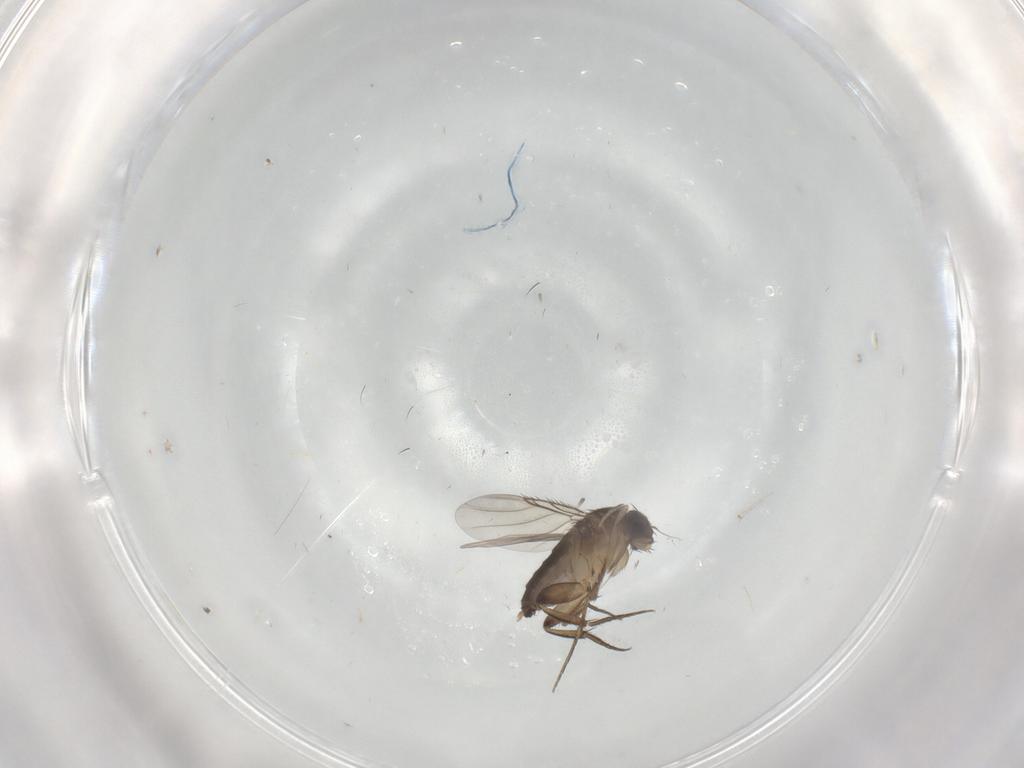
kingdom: Animalia
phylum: Arthropoda
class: Insecta
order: Diptera
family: Phoridae
